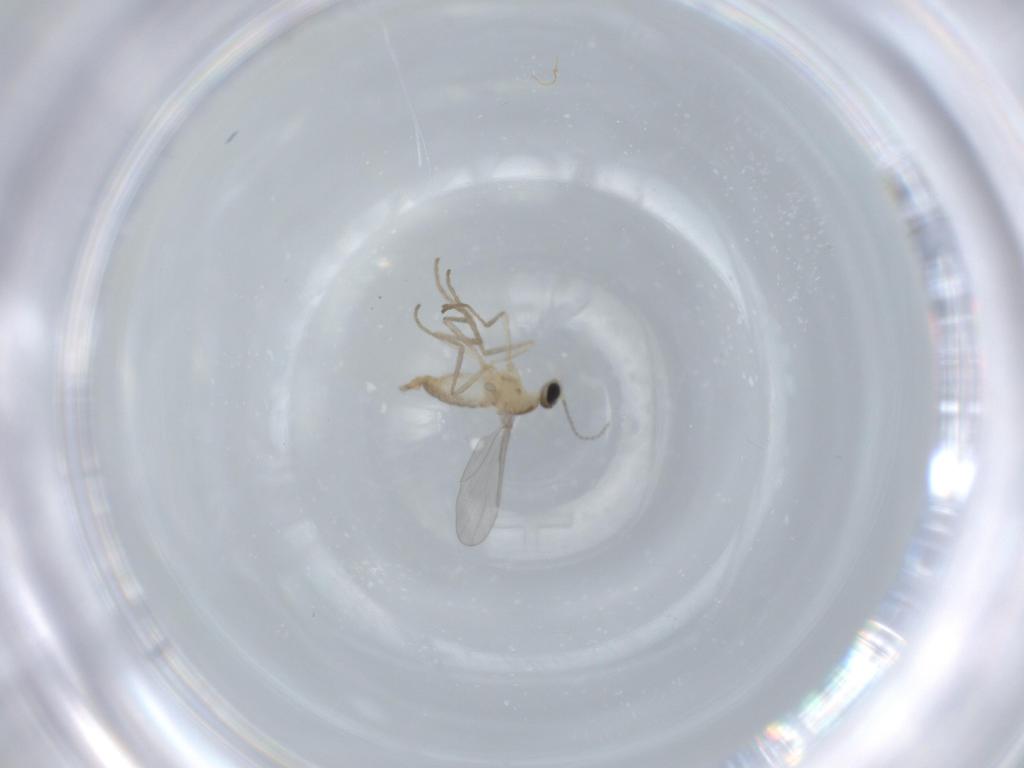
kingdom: Animalia
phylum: Arthropoda
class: Insecta
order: Diptera
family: Cecidomyiidae
